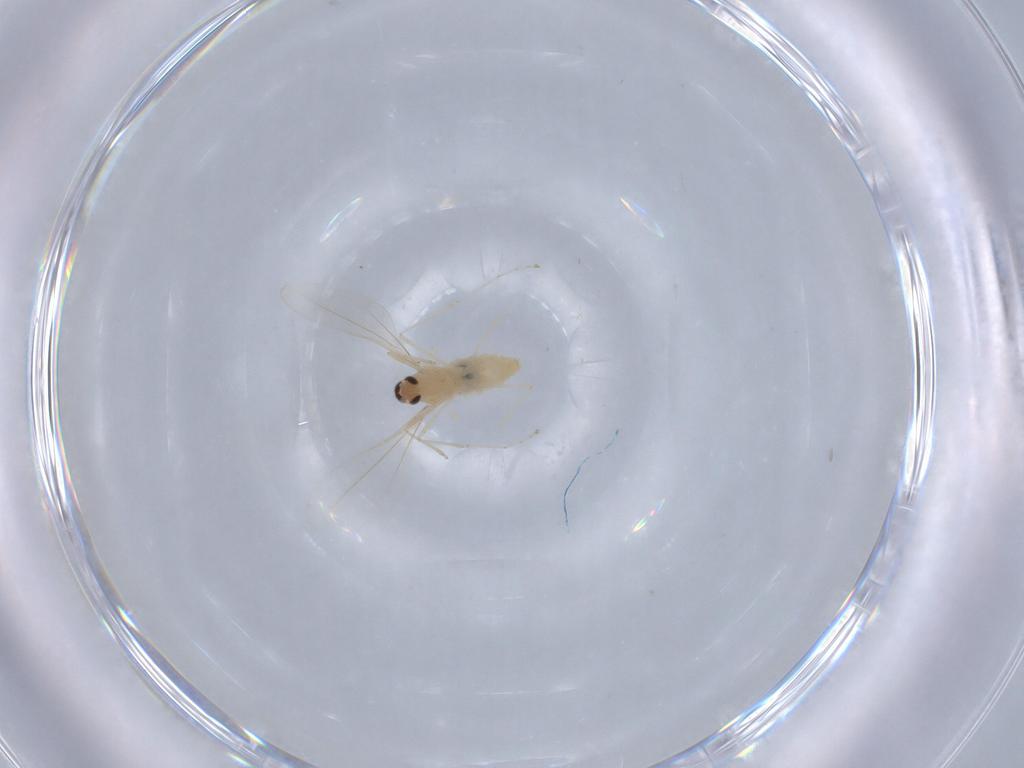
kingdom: Animalia
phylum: Arthropoda
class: Insecta
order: Diptera
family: Cecidomyiidae
